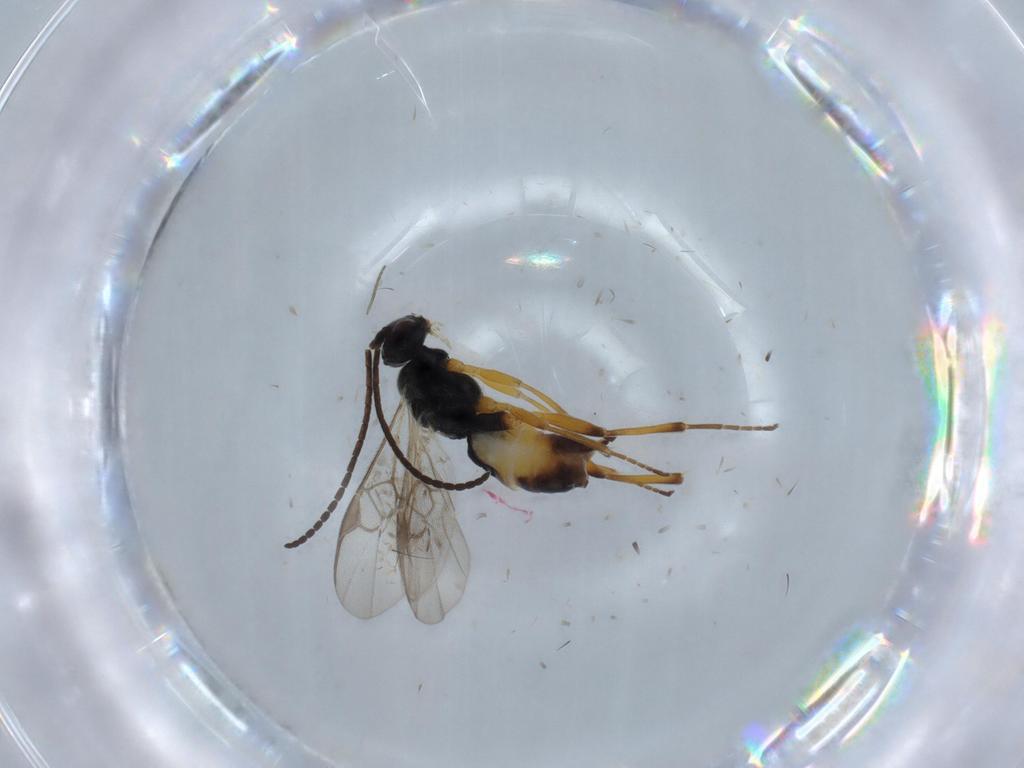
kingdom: Animalia
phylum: Arthropoda
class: Insecta
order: Hymenoptera
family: Braconidae
